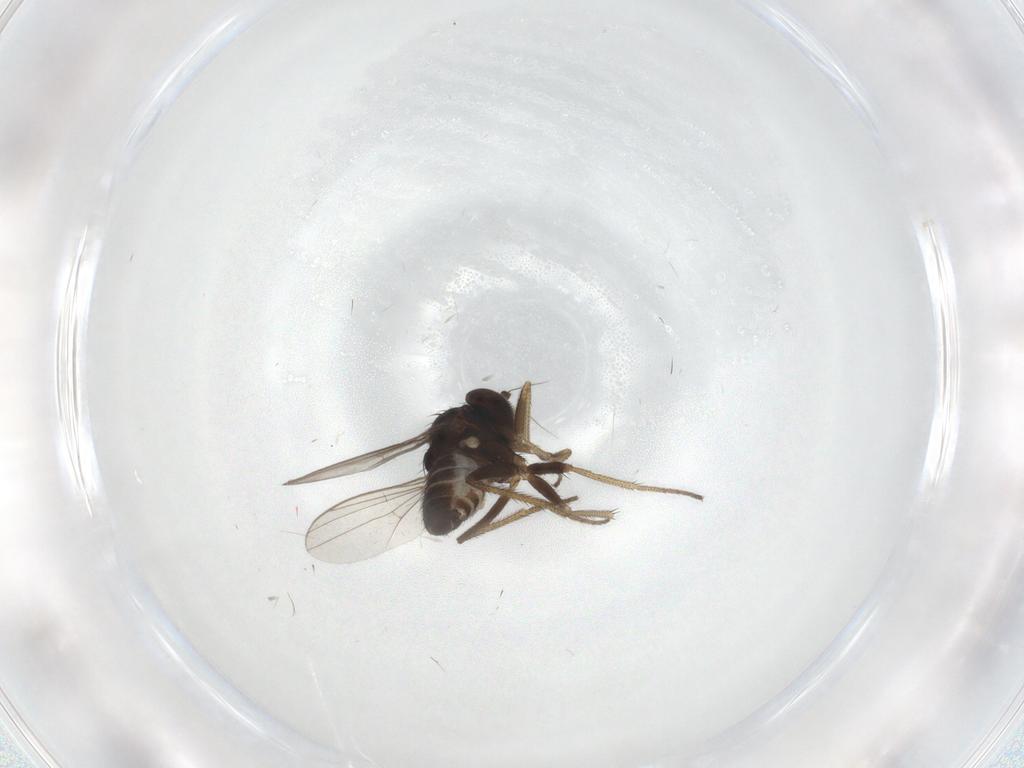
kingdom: Animalia
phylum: Arthropoda
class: Insecta
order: Diptera
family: Dolichopodidae
